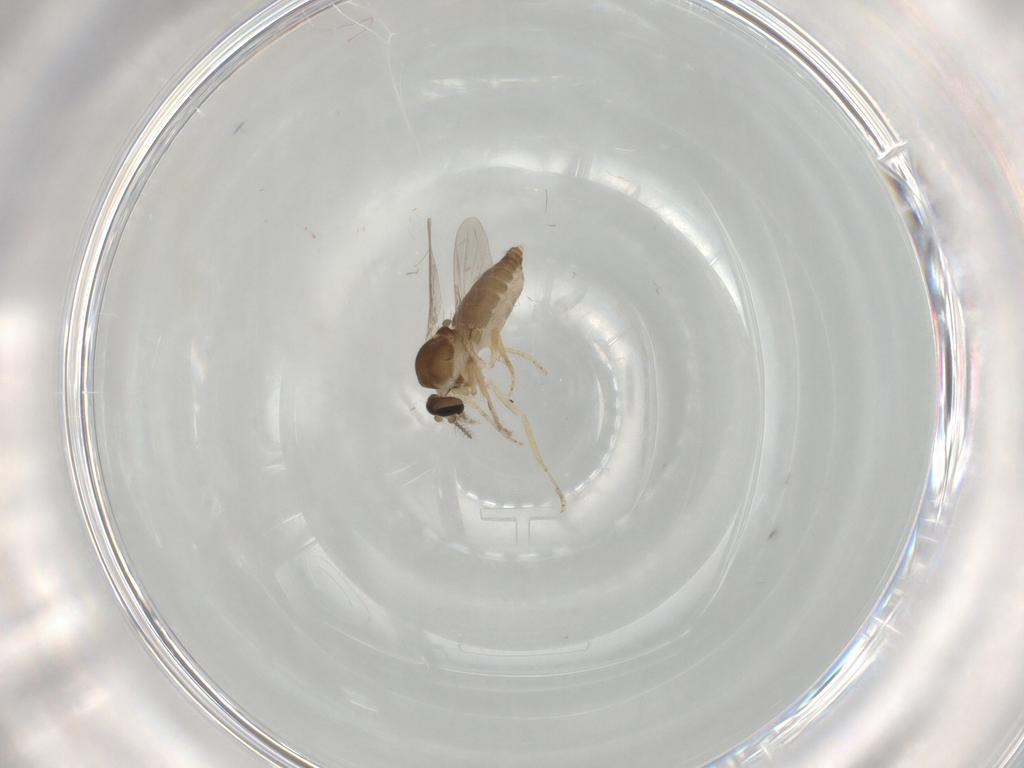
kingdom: Animalia
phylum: Arthropoda
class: Insecta
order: Diptera
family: Ceratopogonidae
